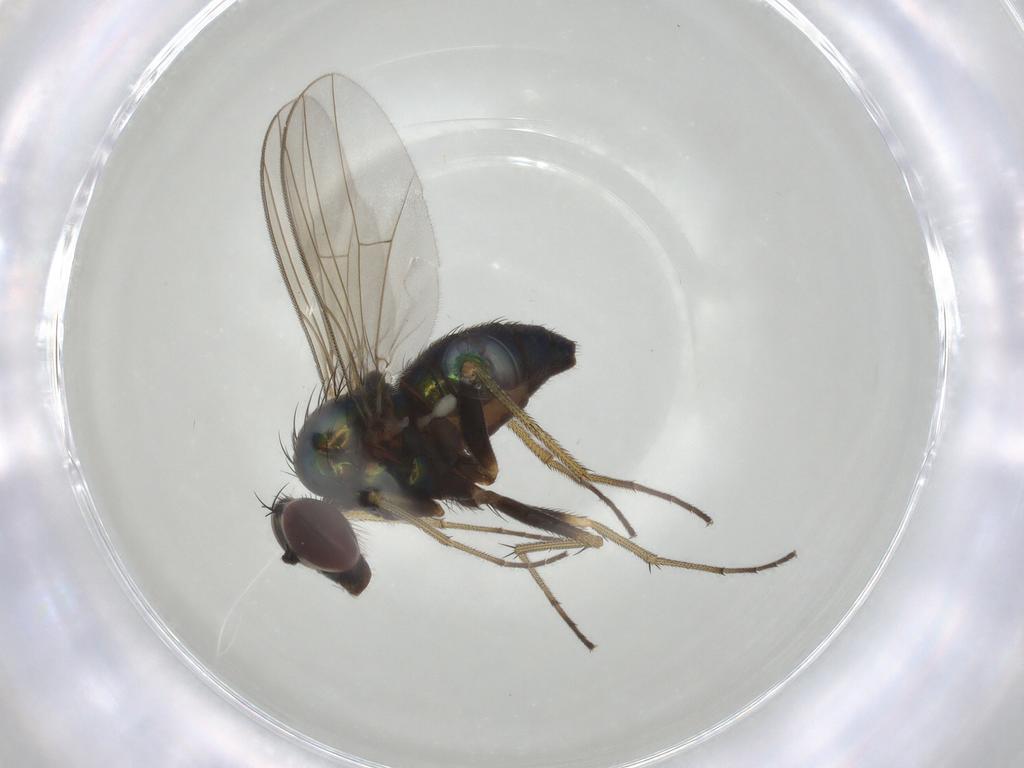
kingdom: Animalia
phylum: Arthropoda
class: Insecta
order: Diptera
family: Dolichopodidae
